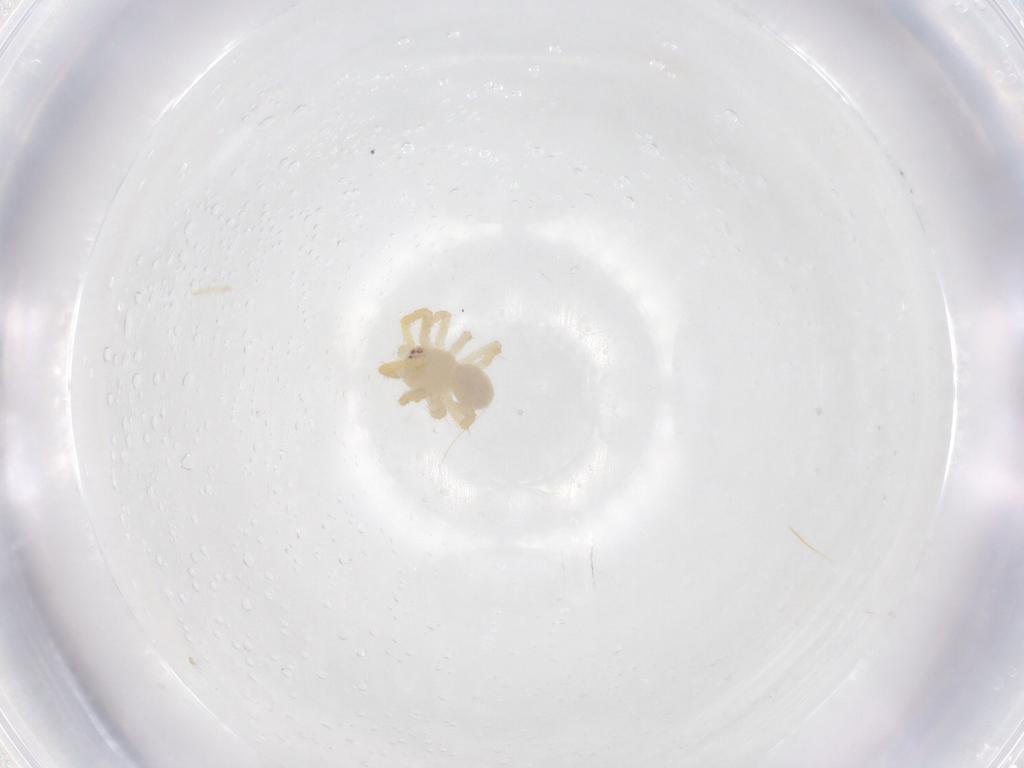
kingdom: Animalia
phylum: Arthropoda
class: Arachnida
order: Araneae
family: Theridiidae
